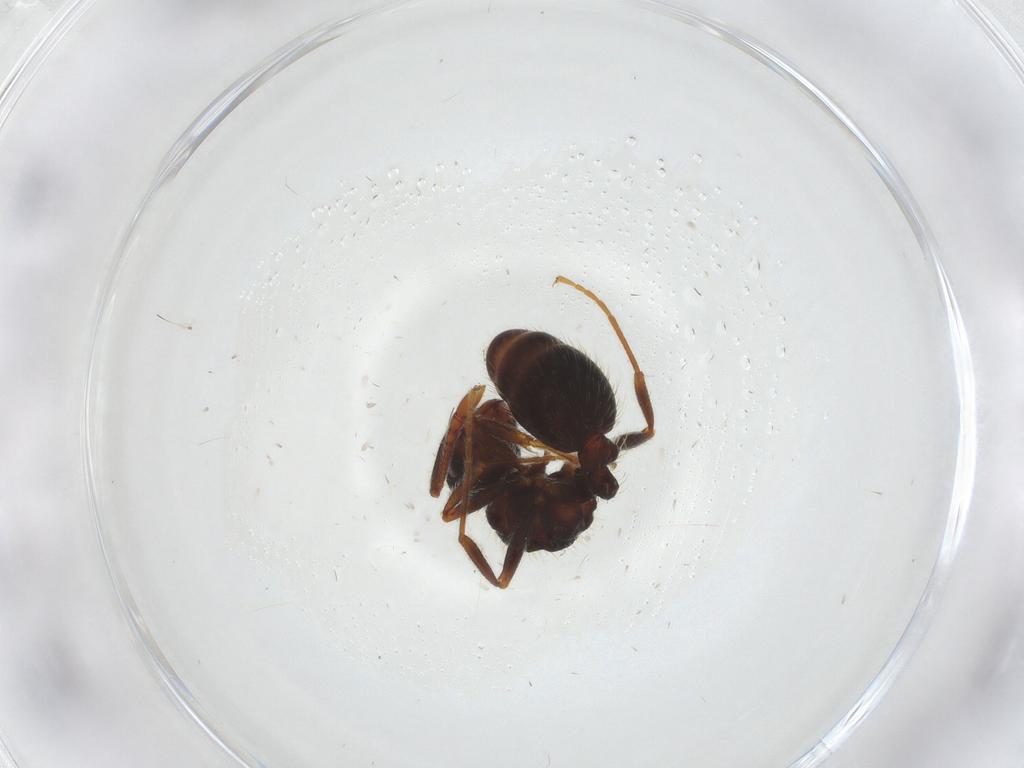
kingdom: Animalia
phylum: Arthropoda
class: Insecta
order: Hymenoptera
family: Formicidae
